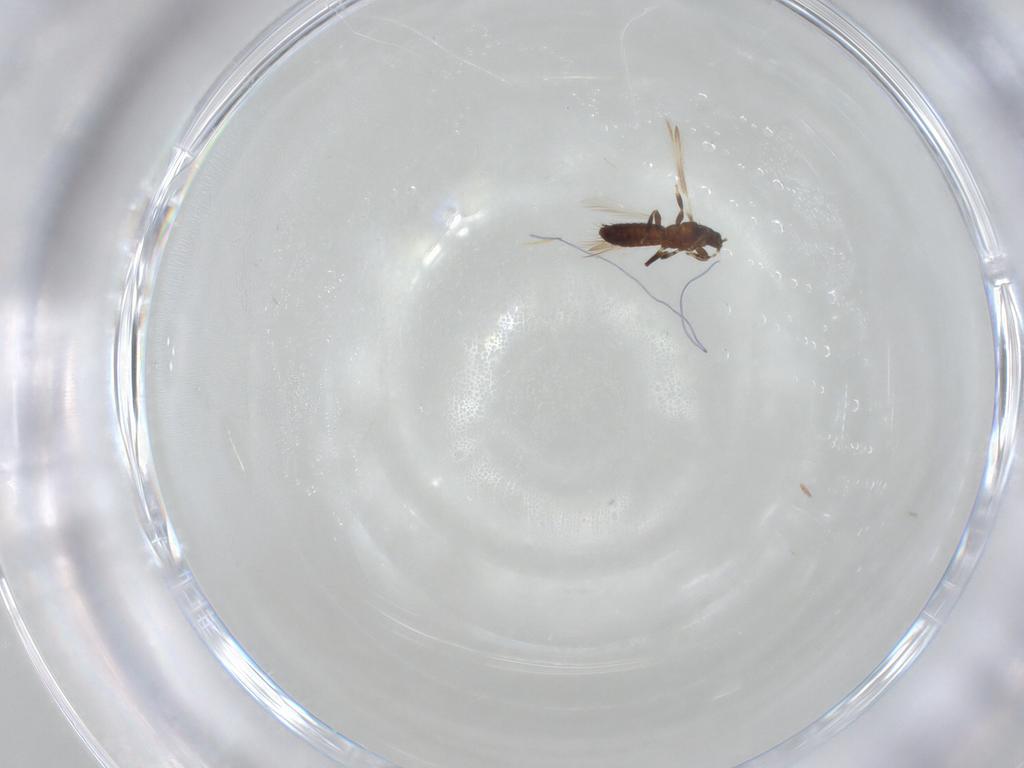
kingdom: Animalia
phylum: Arthropoda
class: Insecta
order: Thysanoptera
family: Thripidae
